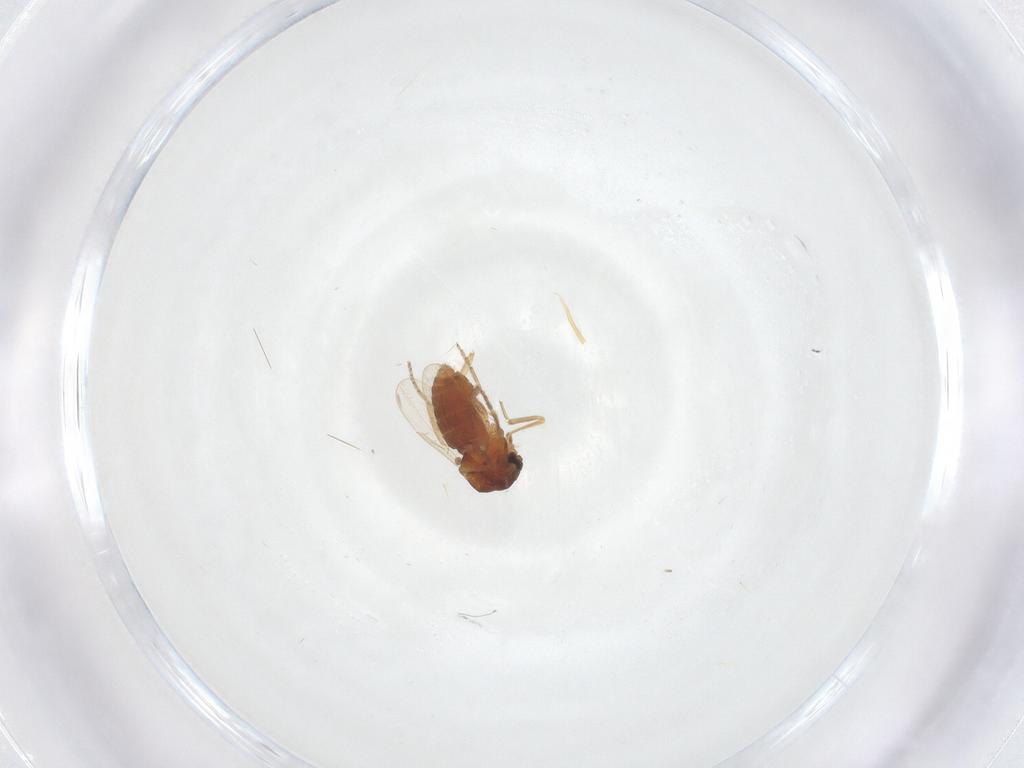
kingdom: Animalia
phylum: Arthropoda
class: Insecta
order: Diptera
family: Ceratopogonidae
